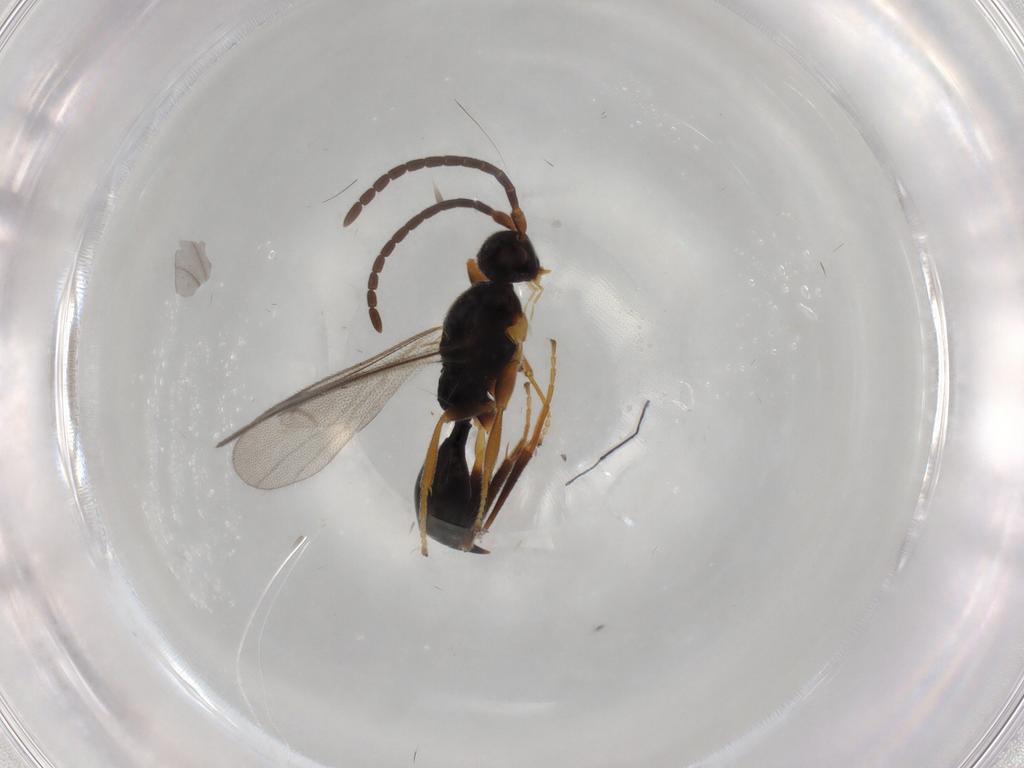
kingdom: Animalia
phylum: Arthropoda
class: Insecta
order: Hymenoptera
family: Proctotrupidae
